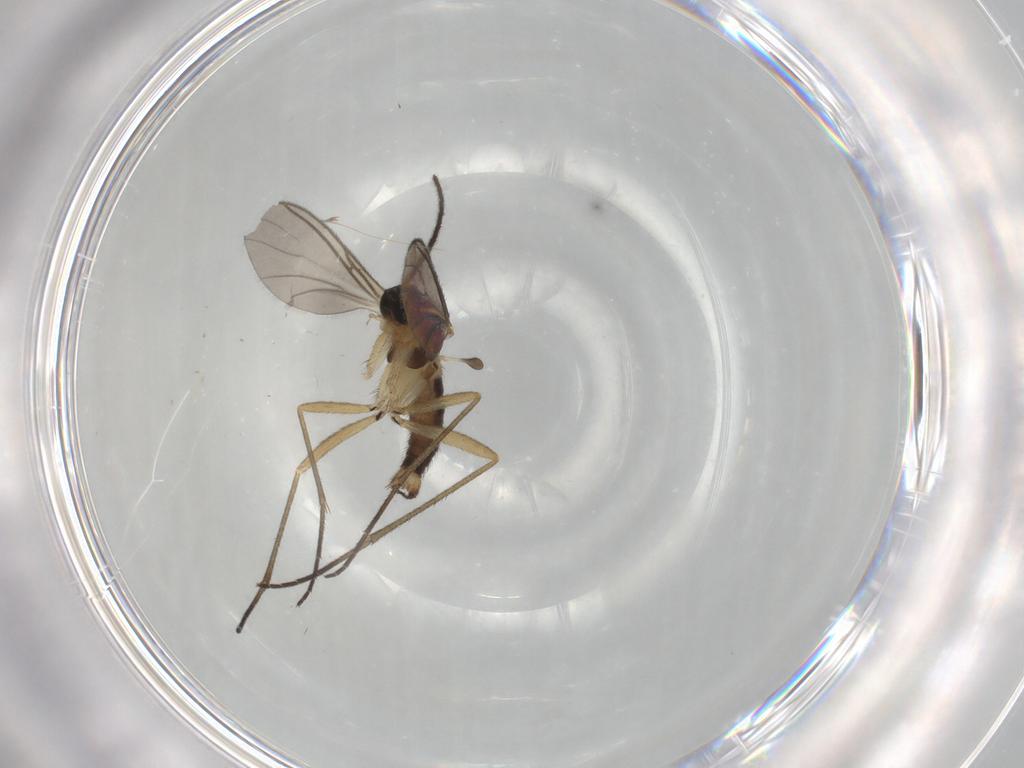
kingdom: Animalia
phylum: Arthropoda
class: Insecta
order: Diptera
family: Sciaridae
